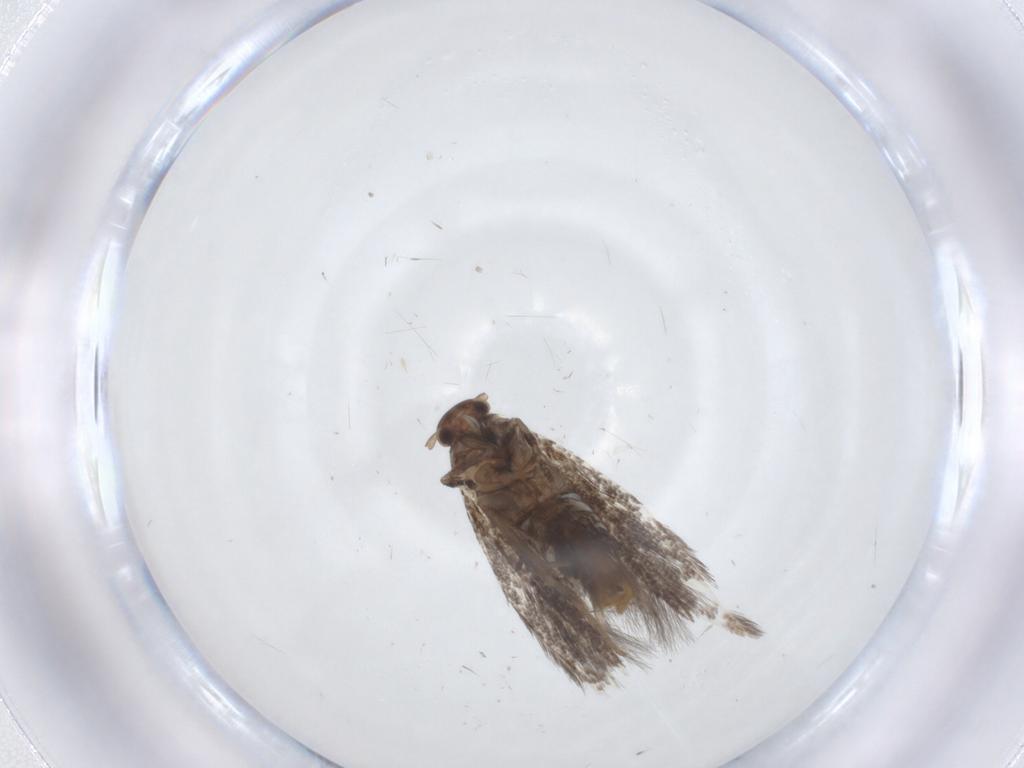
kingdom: Animalia
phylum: Arthropoda
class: Insecta
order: Lepidoptera
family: Elachistidae
